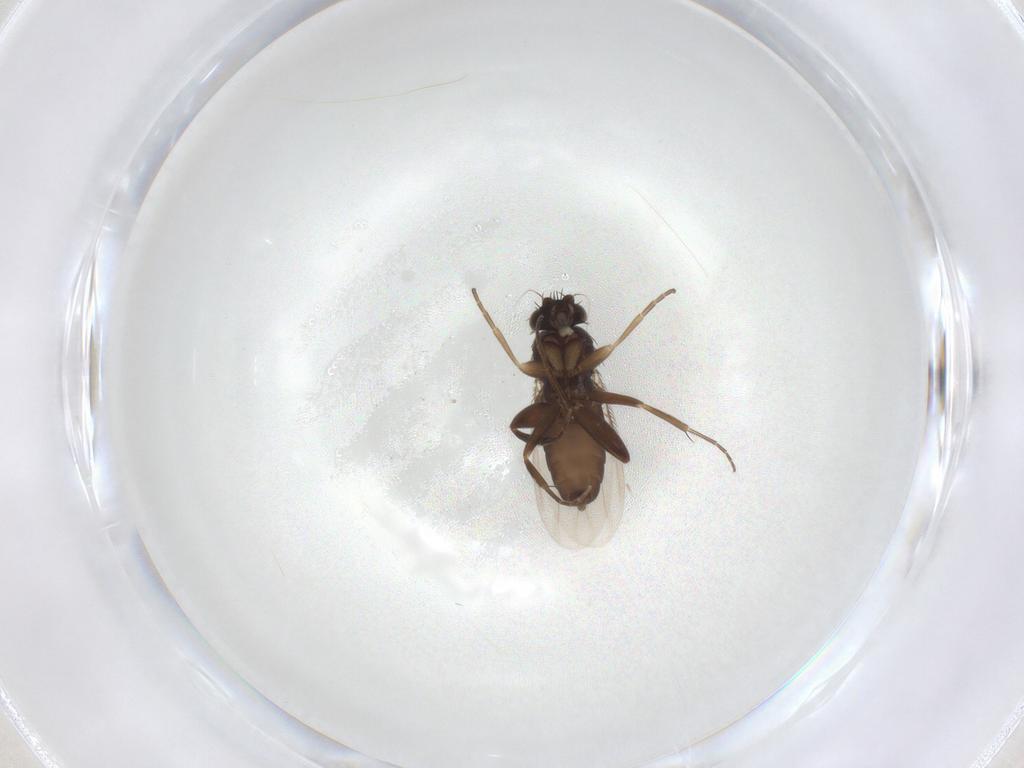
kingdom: Animalia
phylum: Arthropoda
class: Insecta
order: Diptera
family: Phoridae
